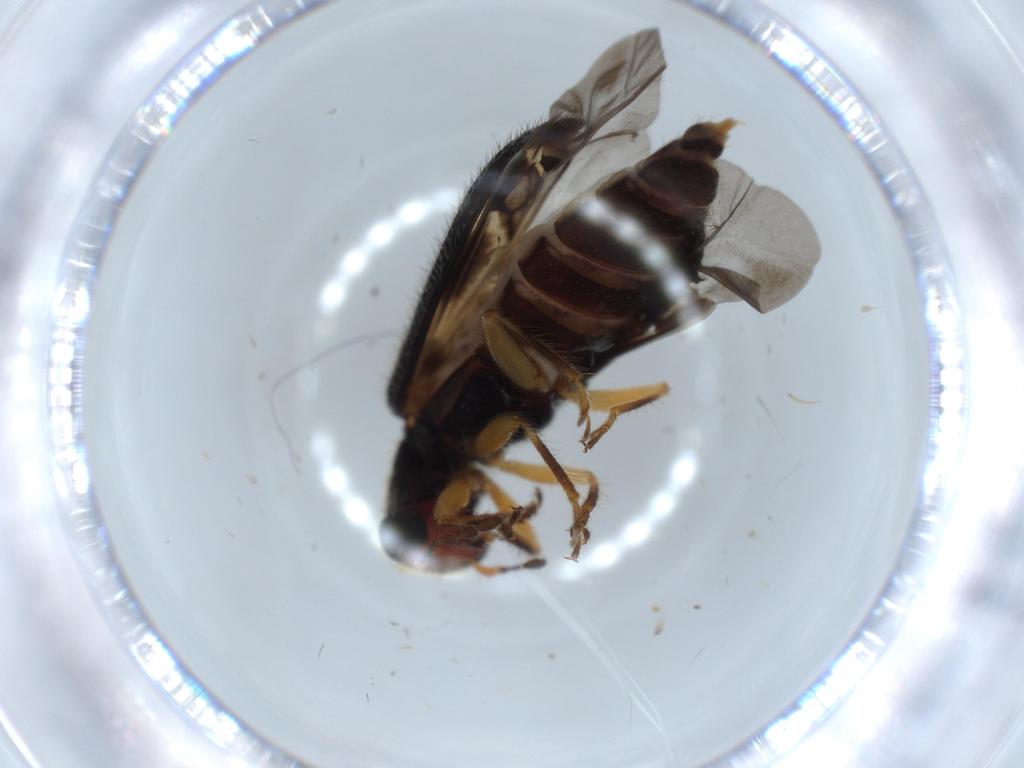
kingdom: Animalia
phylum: Arthropoda
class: Insecta
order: Coleoptera
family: Cleridae
